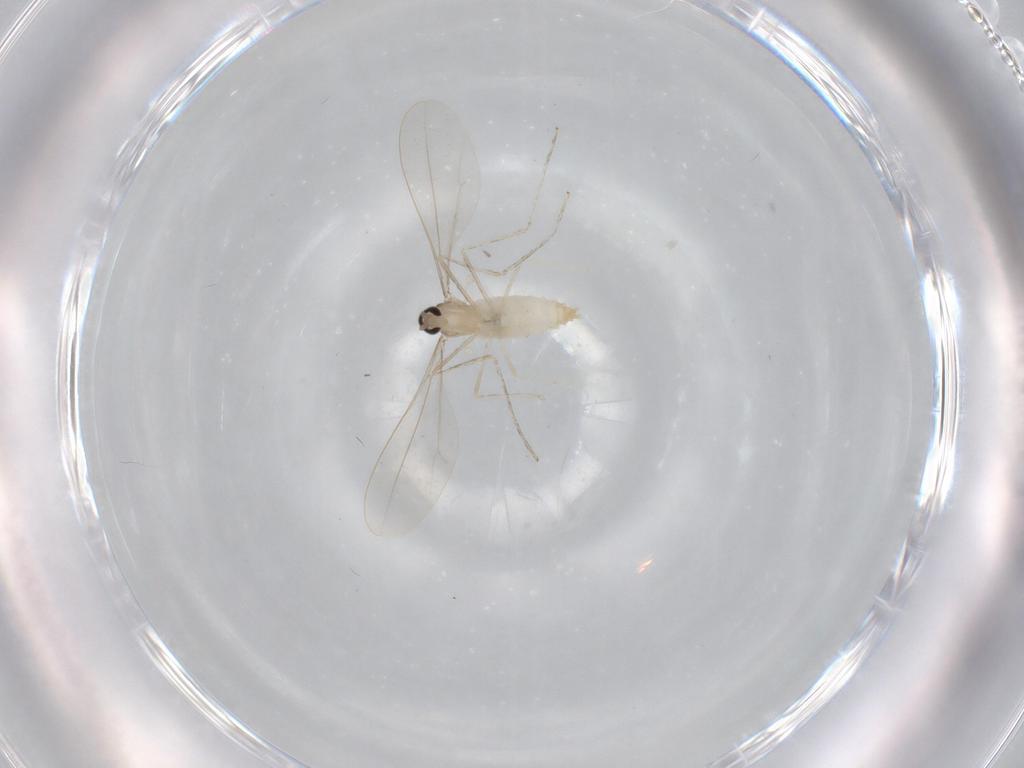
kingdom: Animalia
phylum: Arthropoda
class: Insecta
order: Diptera
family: Cecidomyiidae
